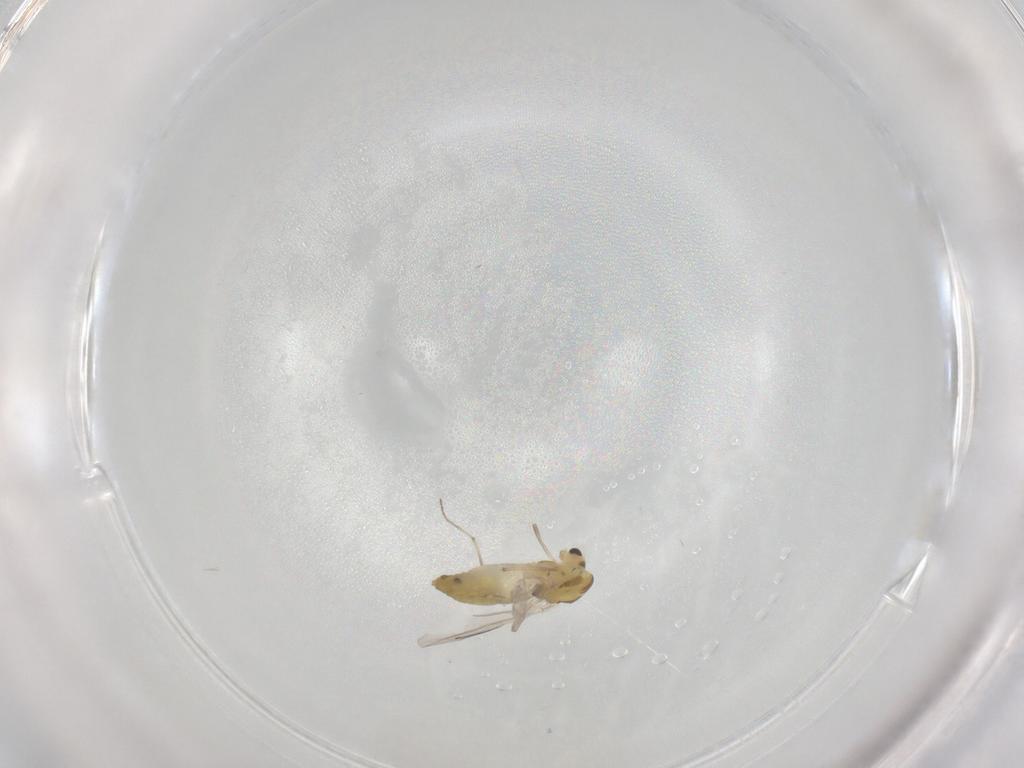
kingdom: Animalia
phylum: Arthropoda
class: Insecta
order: Diptera
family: Chironomidae
